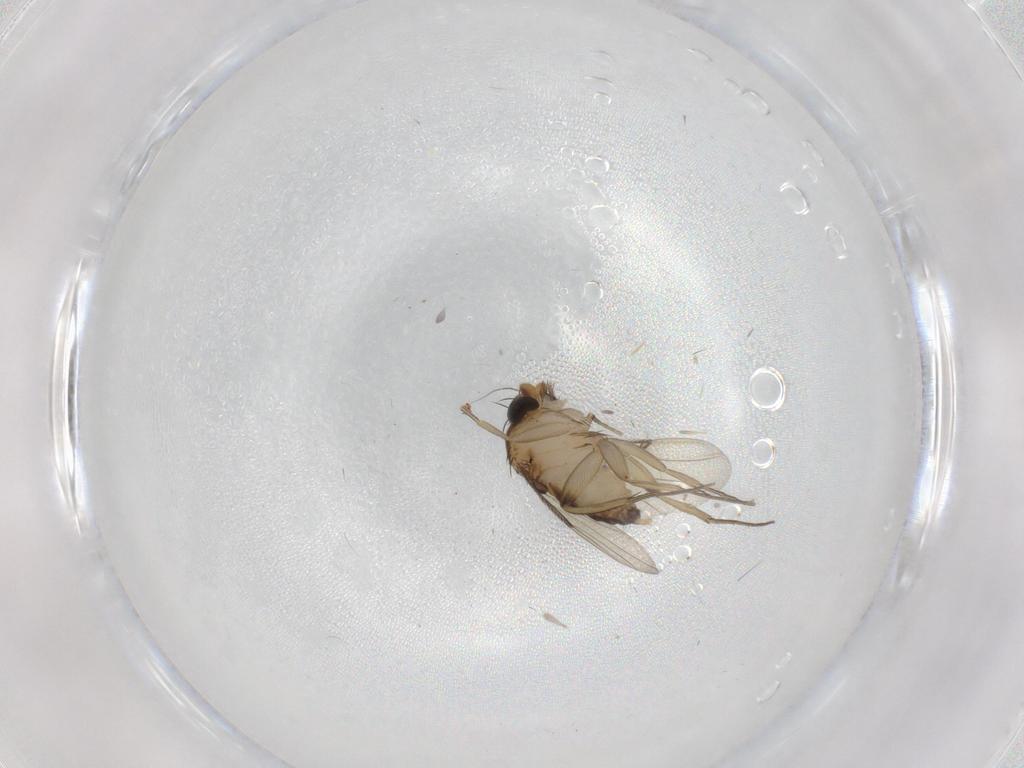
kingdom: Animalia
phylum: Arthropoda
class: Insecta
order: Diptera
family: Phoridae
